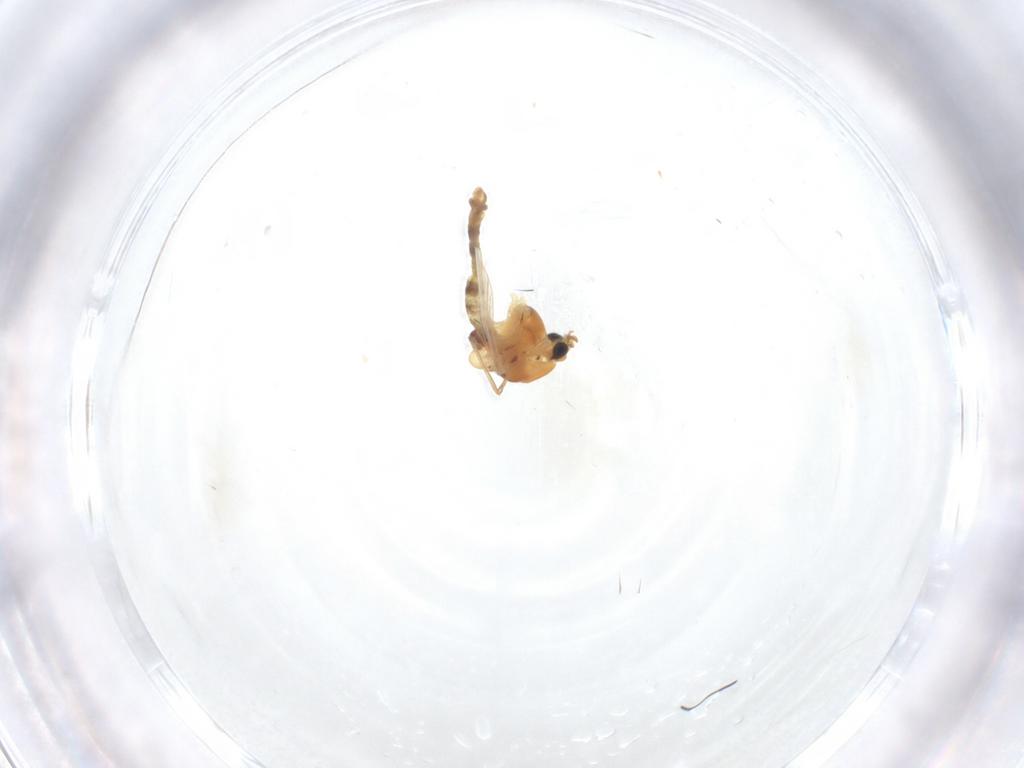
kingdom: Animalia
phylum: Arthropoda
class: Insecta
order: Diptera
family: Chironomidae
